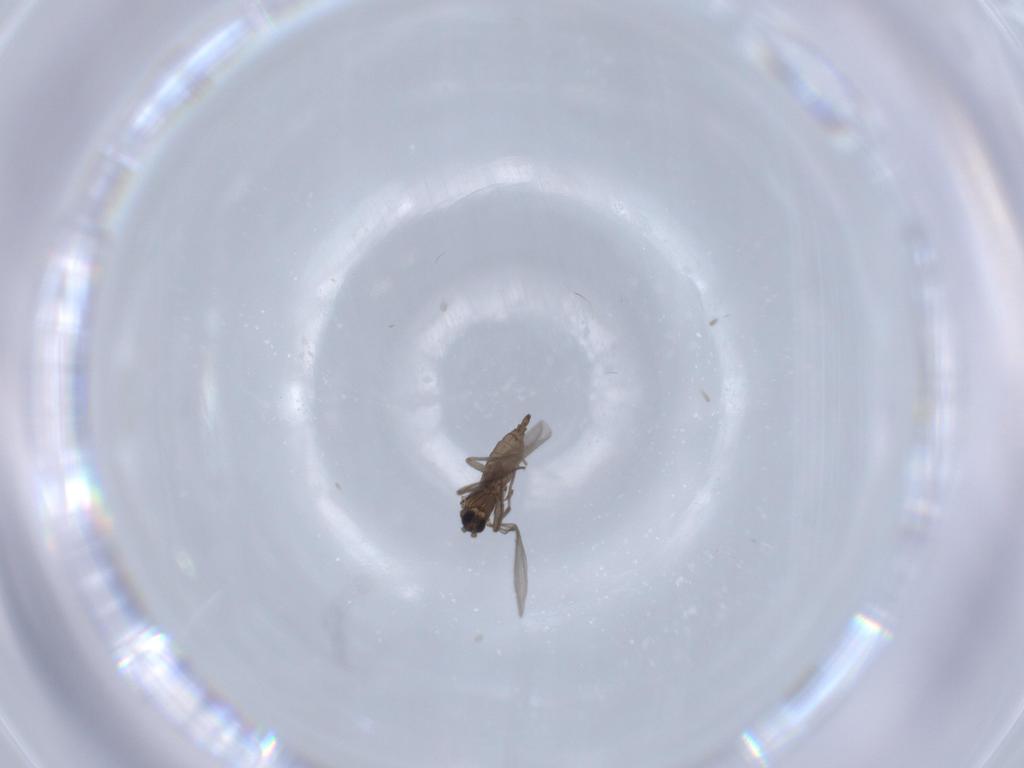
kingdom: Animalia
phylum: Arthropoda
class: Insecta
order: Diptera
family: Sciaridae
